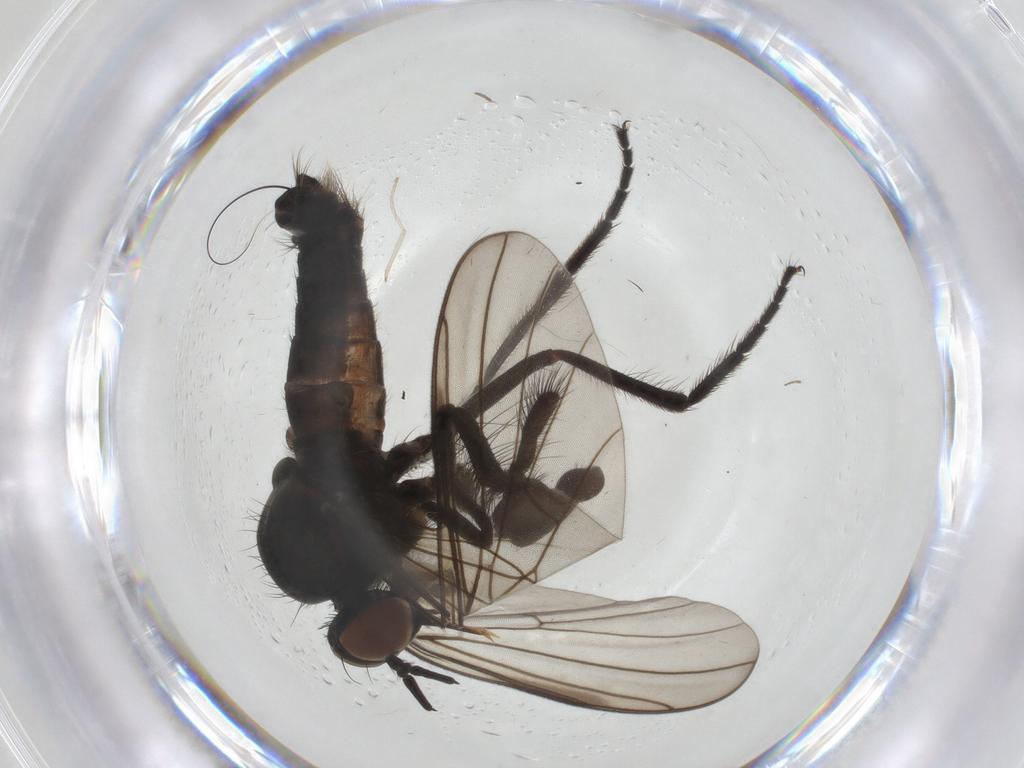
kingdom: Animalia
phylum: Arthropoda
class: Insecta
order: Diptera
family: Empididae
